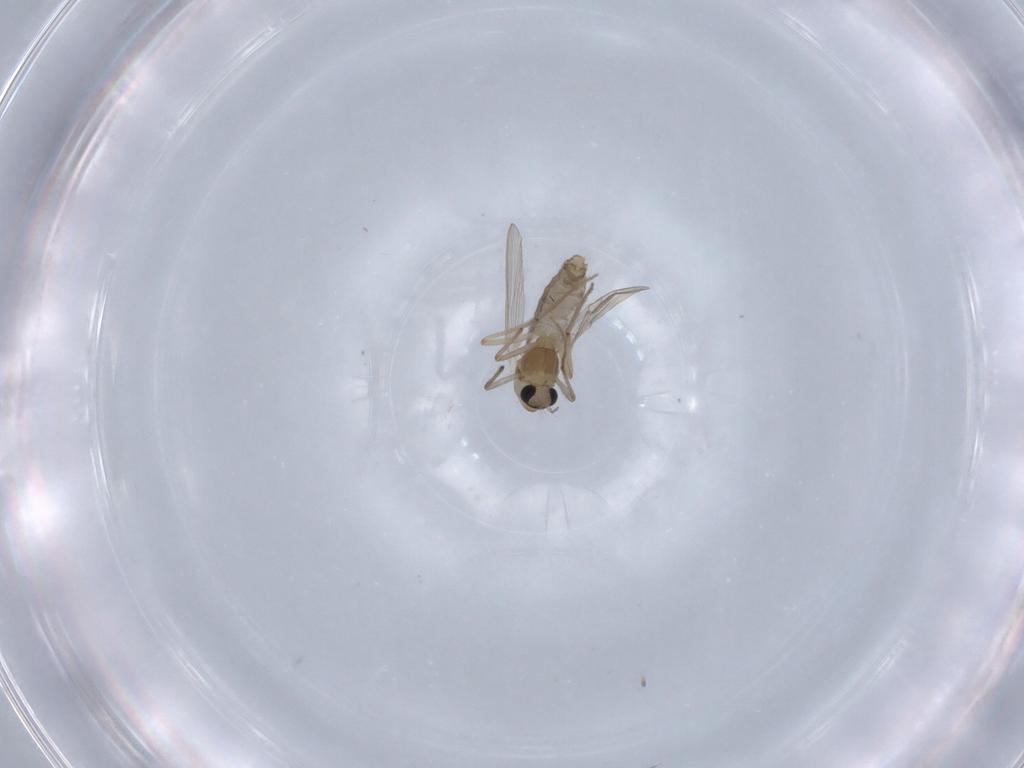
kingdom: Animalia
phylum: Arthropoda
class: Insecta
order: Diptera
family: Chironomidae
